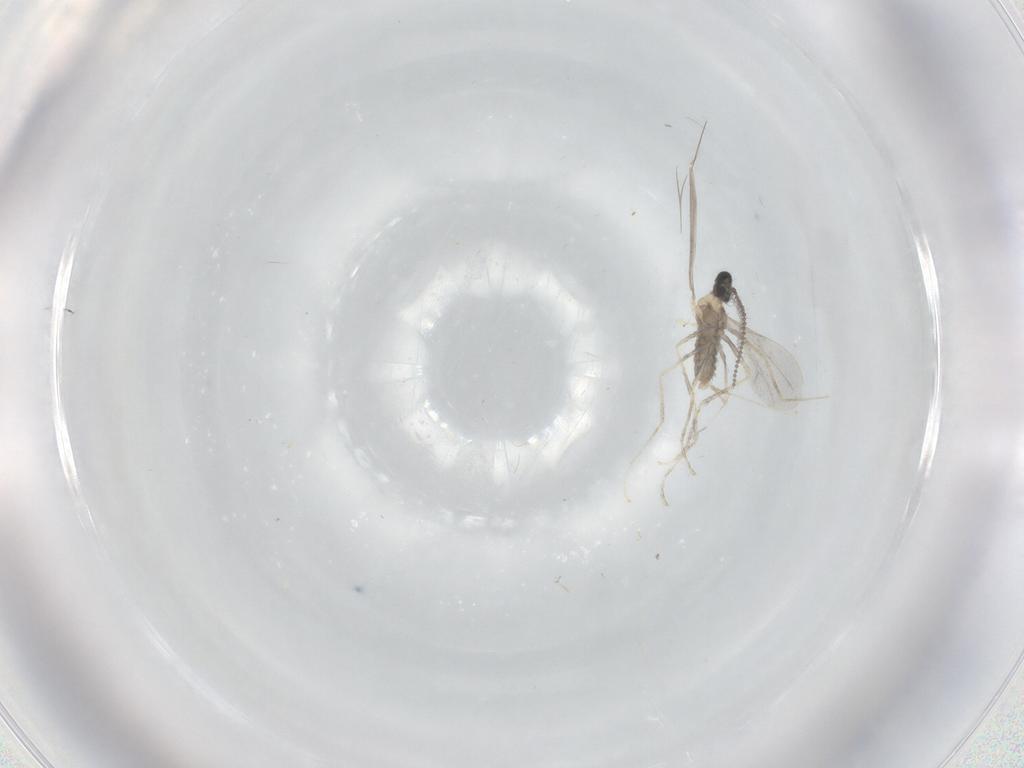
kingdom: Animalia
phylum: Arthropoda
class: Insecta
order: Diptera
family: Cecidomyiidae
